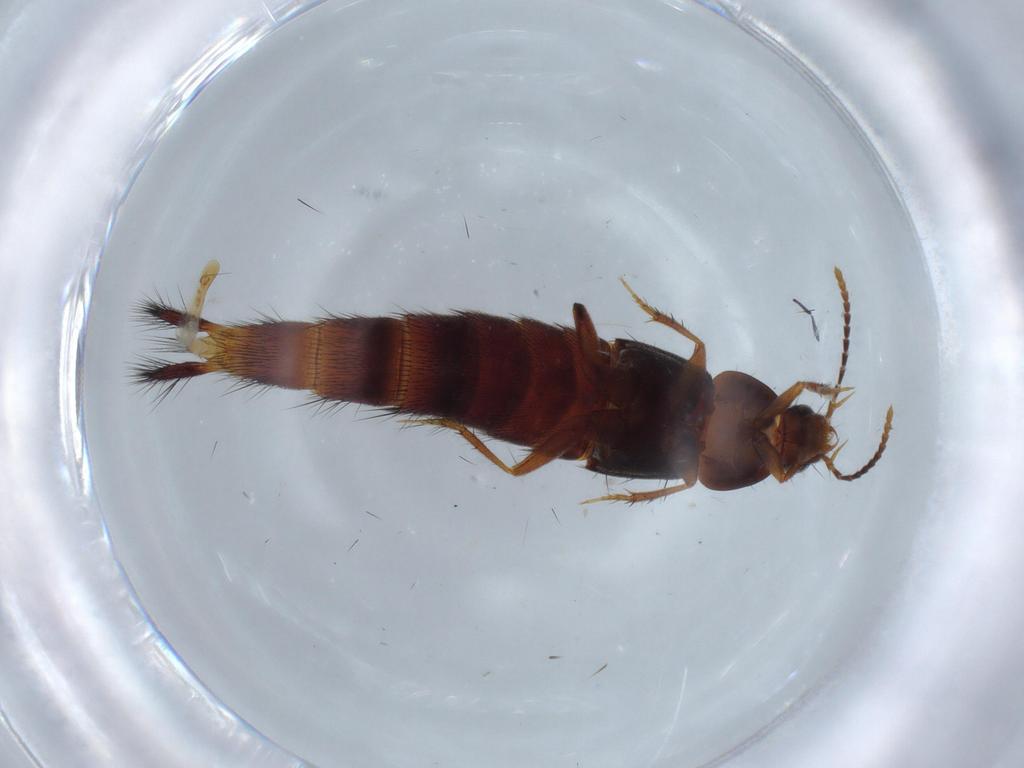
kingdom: Animalia
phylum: Arthropoda
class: Insecta
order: Coleoptera
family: Staphylinidae
